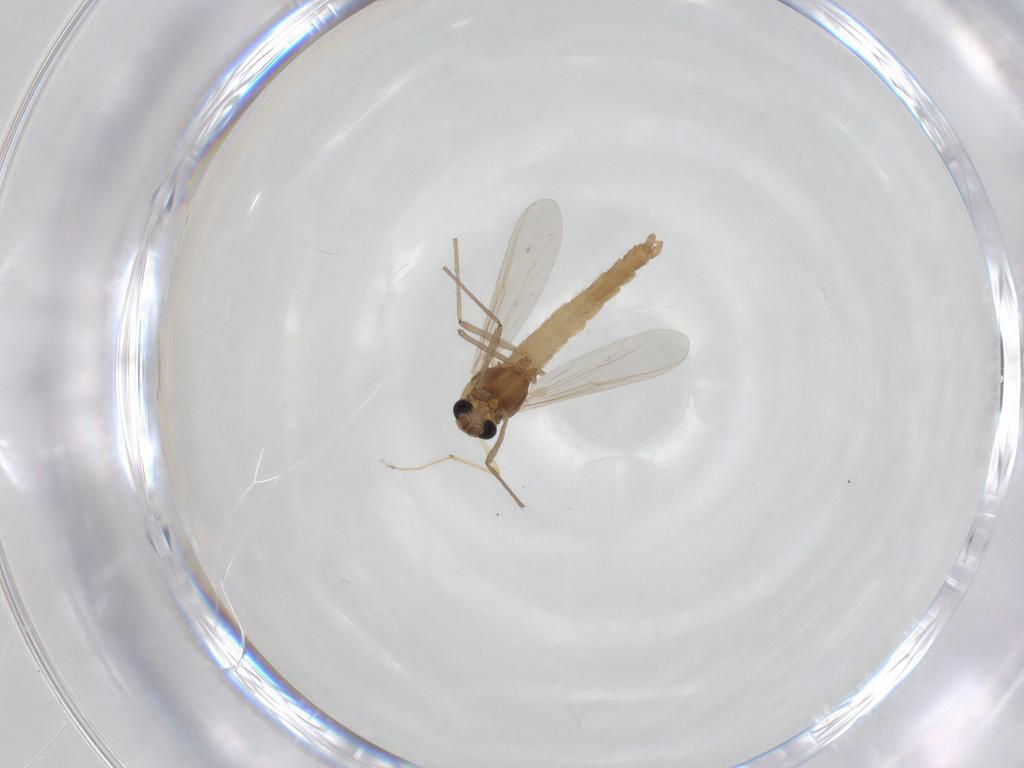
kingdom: Animalia
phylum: Arthropoda
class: Insecta
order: Diptera
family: Chironomidae
